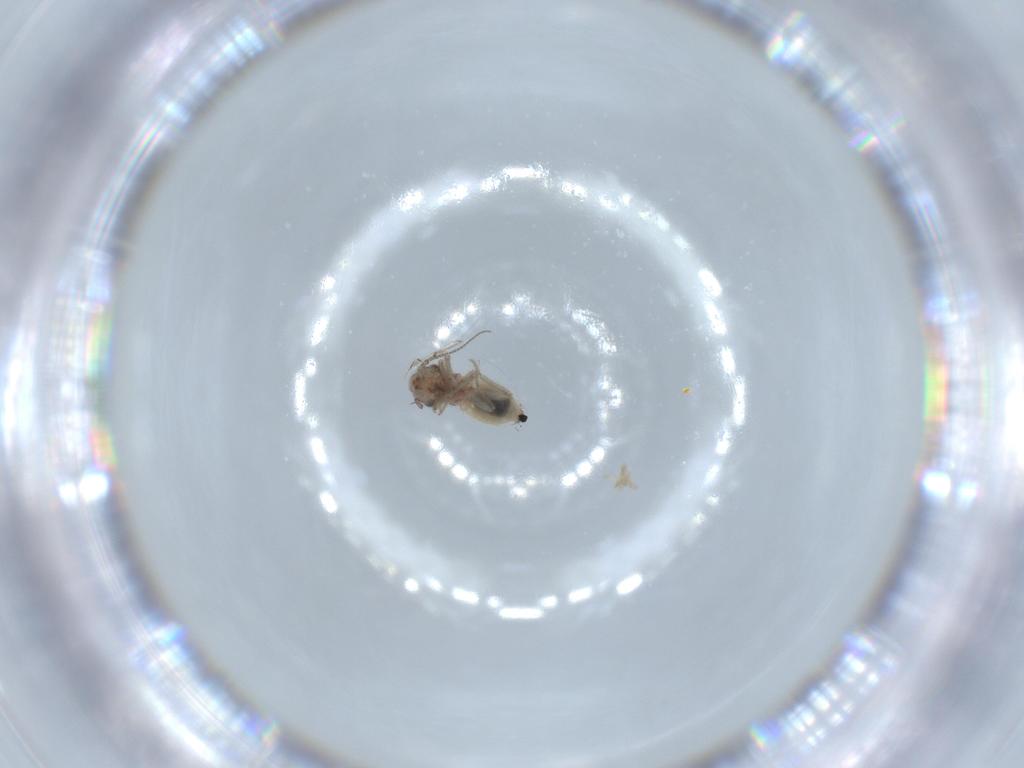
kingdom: Animalia
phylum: Arthropoda
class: Insecta
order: Psocodea
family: Lepidopsocidae
